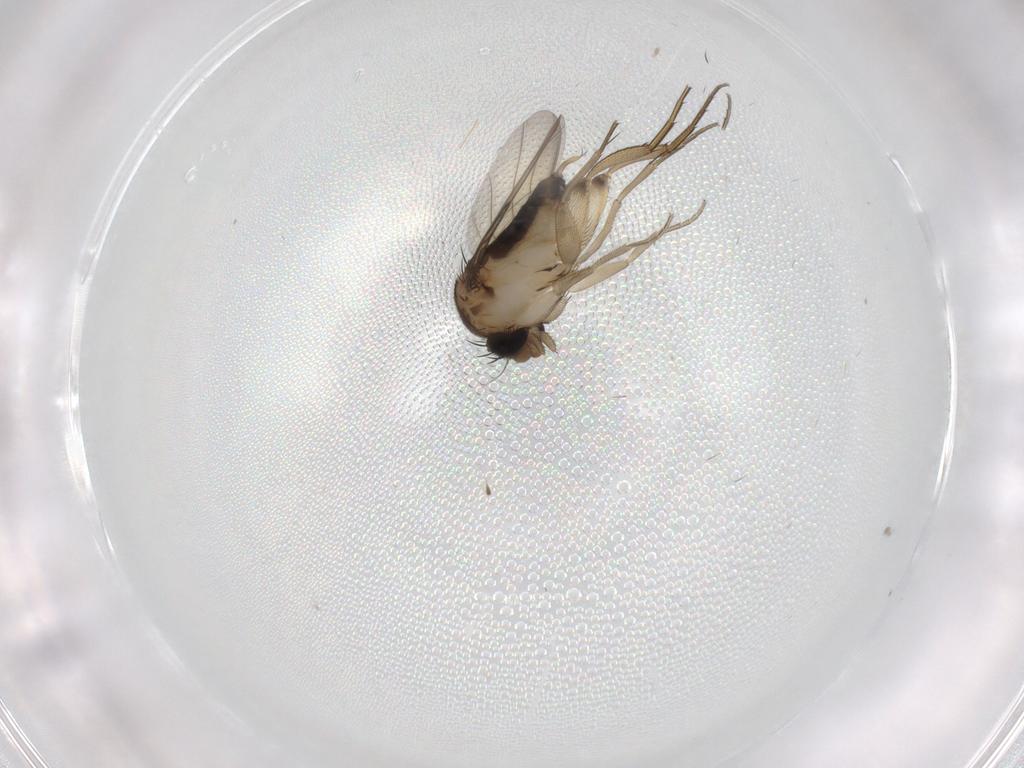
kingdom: Animalia
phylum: Arthropoda
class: Insecta
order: Diptera
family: Phoridae
